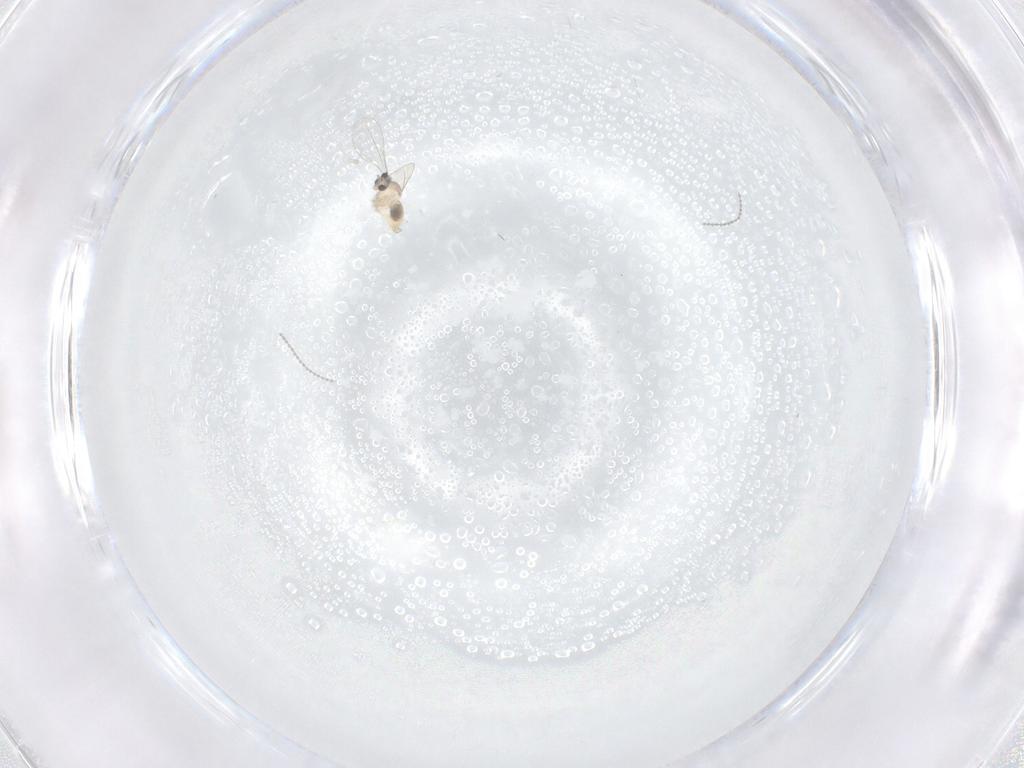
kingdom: Animalia
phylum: Arthropoda
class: Insecta
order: Diptera
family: Cecidomyiidae
